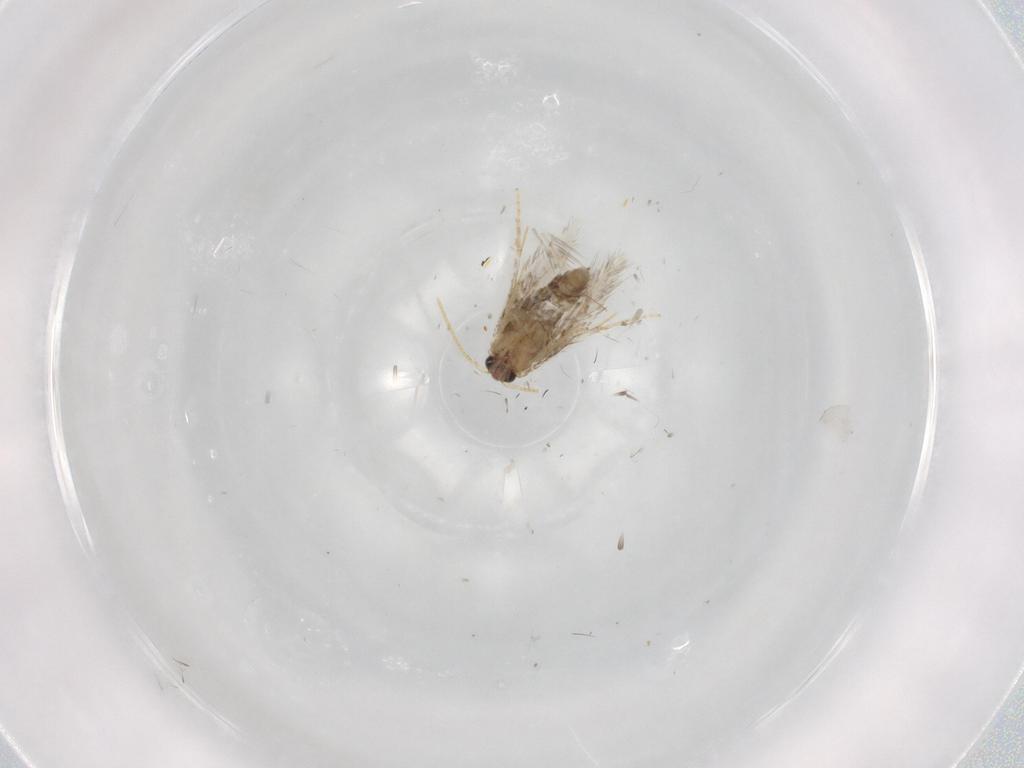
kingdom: Animalia
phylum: Arthropoda
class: Insecta
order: Lepidoptera
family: Copromorphidae
